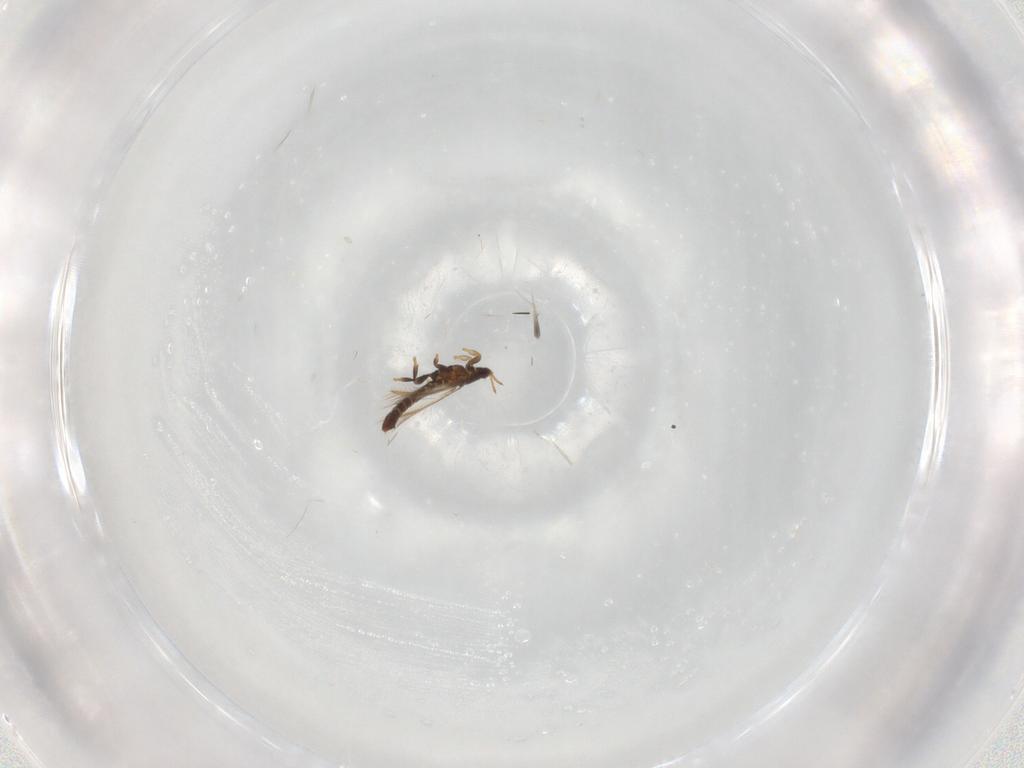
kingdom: Animalia
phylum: Arthropoda
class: Insecta
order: Thysanoptera
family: Thripidae
